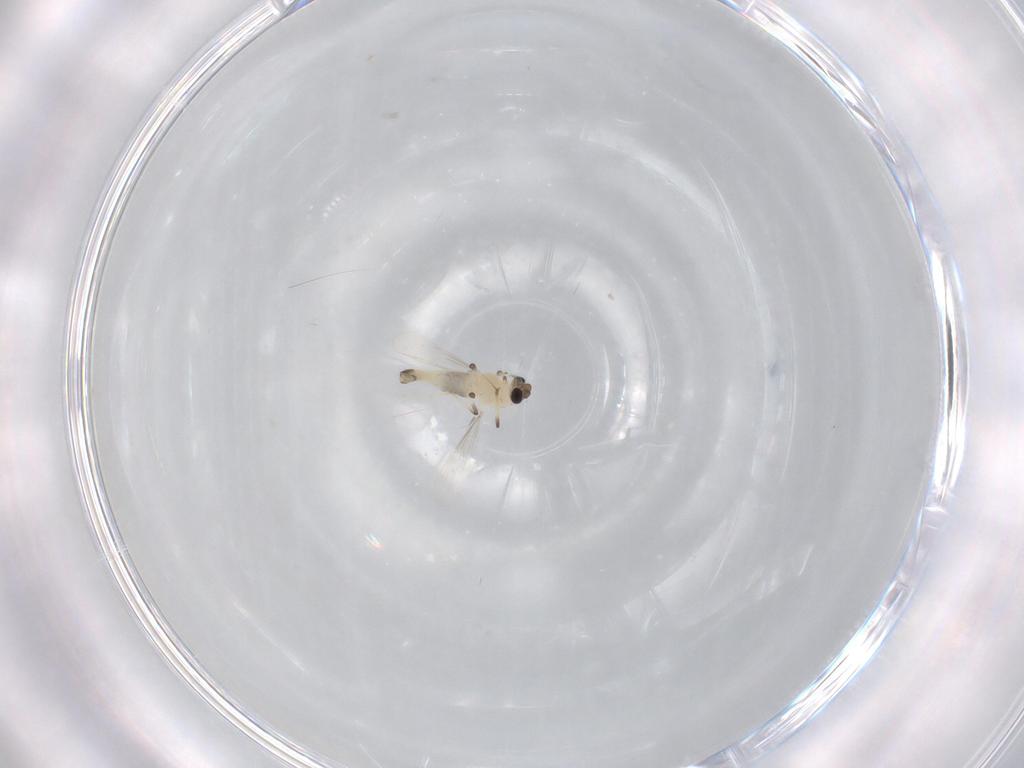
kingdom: Animalia
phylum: Arthropoda
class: Insecta
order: Diptera
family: Chironomidae
